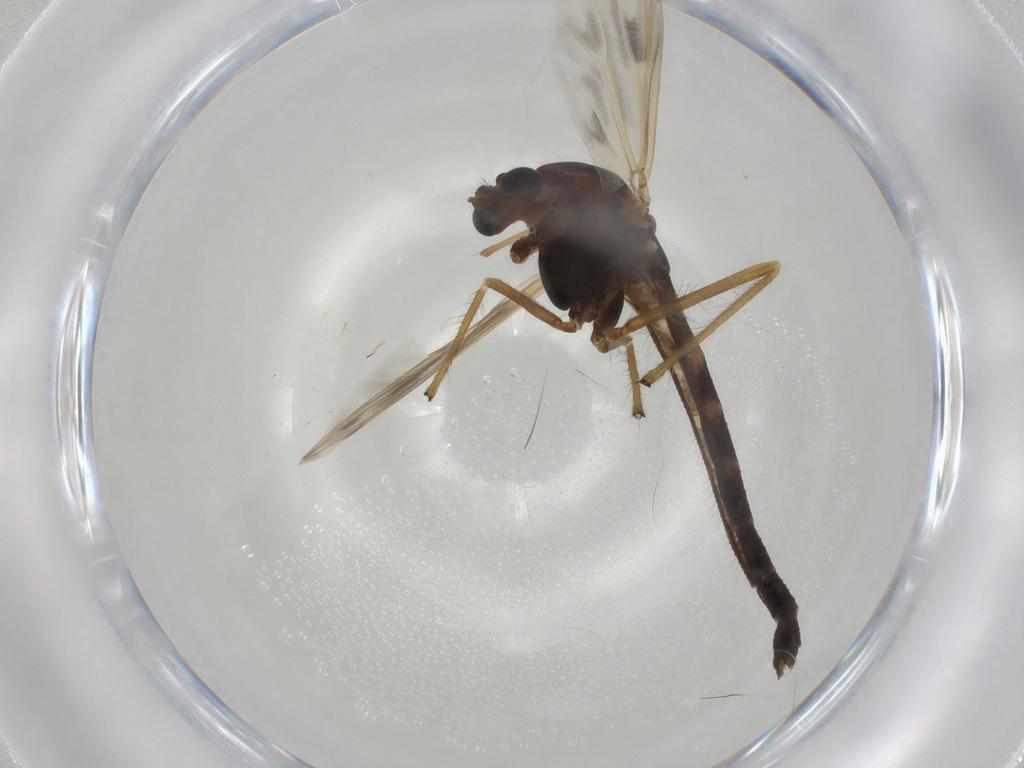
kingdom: Animalia
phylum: Arthropoda
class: Insecta
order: Diptera
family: Chironomidae
